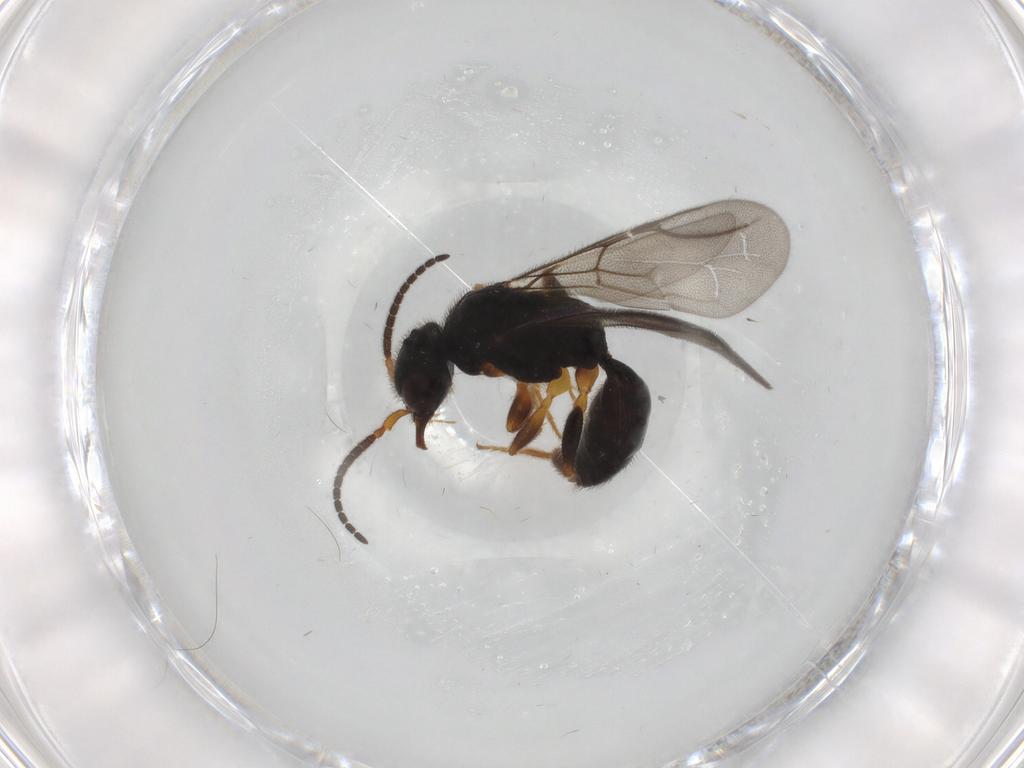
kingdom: Animalia
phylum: Arthropoda
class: Insecta
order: Hymenoptera
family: Bethylidae
